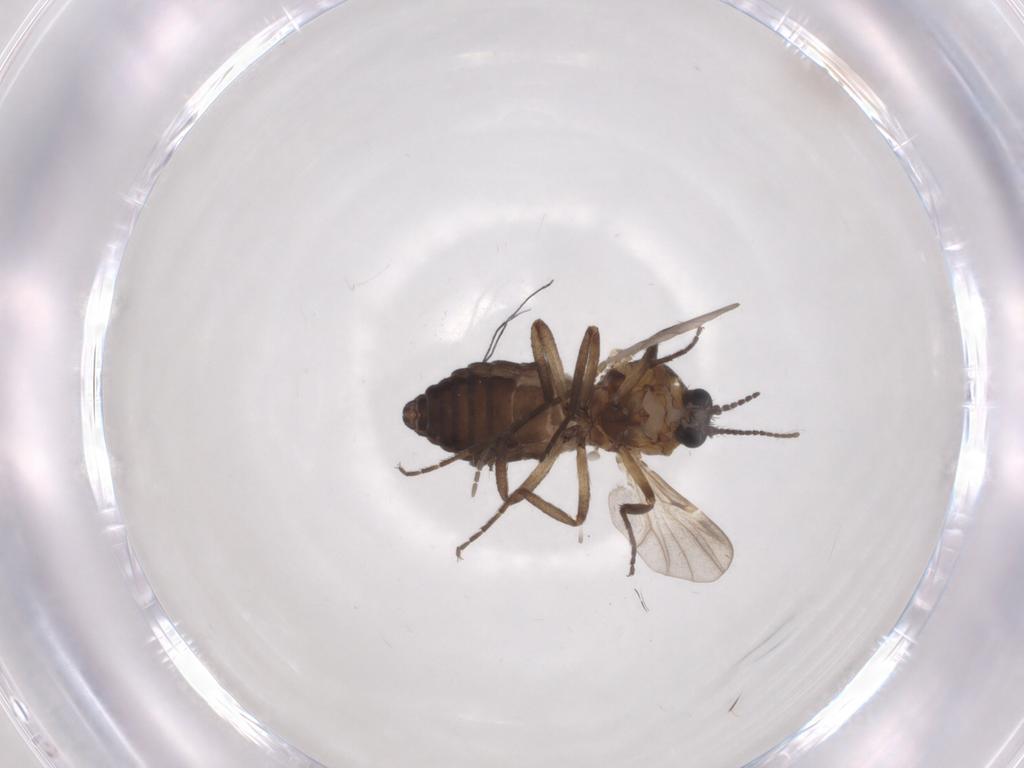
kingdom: Animalia
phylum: Arthropoda
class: Insecta
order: Diptera
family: Ceratopogonidae
